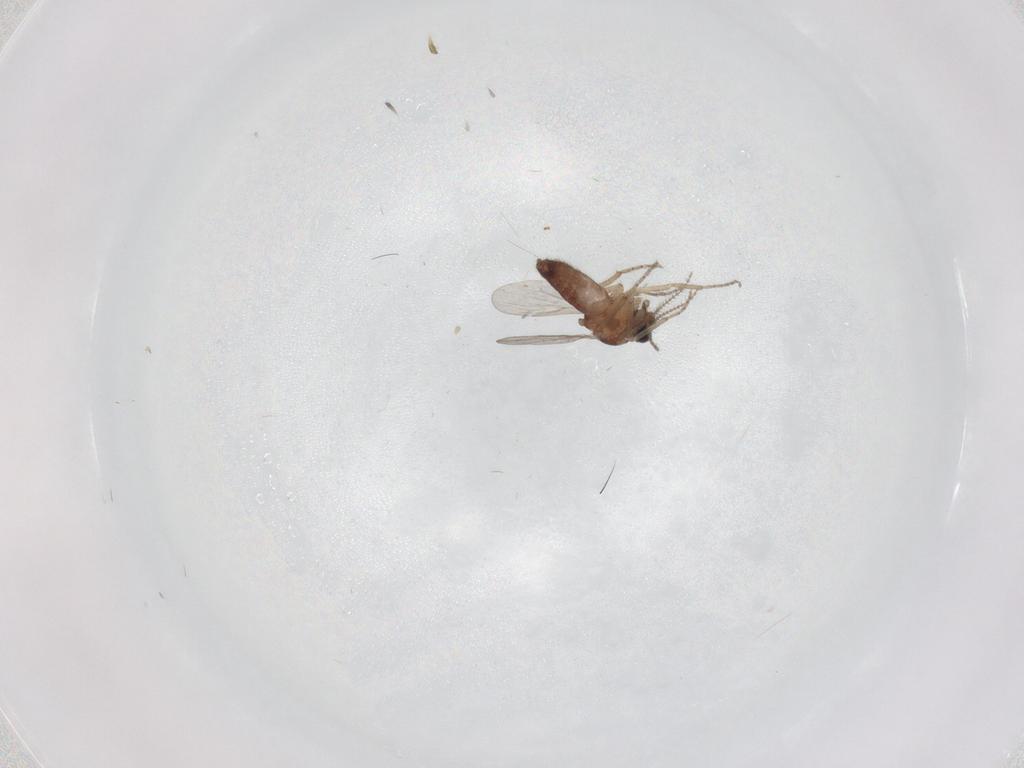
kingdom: Animalia
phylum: Arthropoda
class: Insecta
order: Diptera
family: Ceratopogonidae
